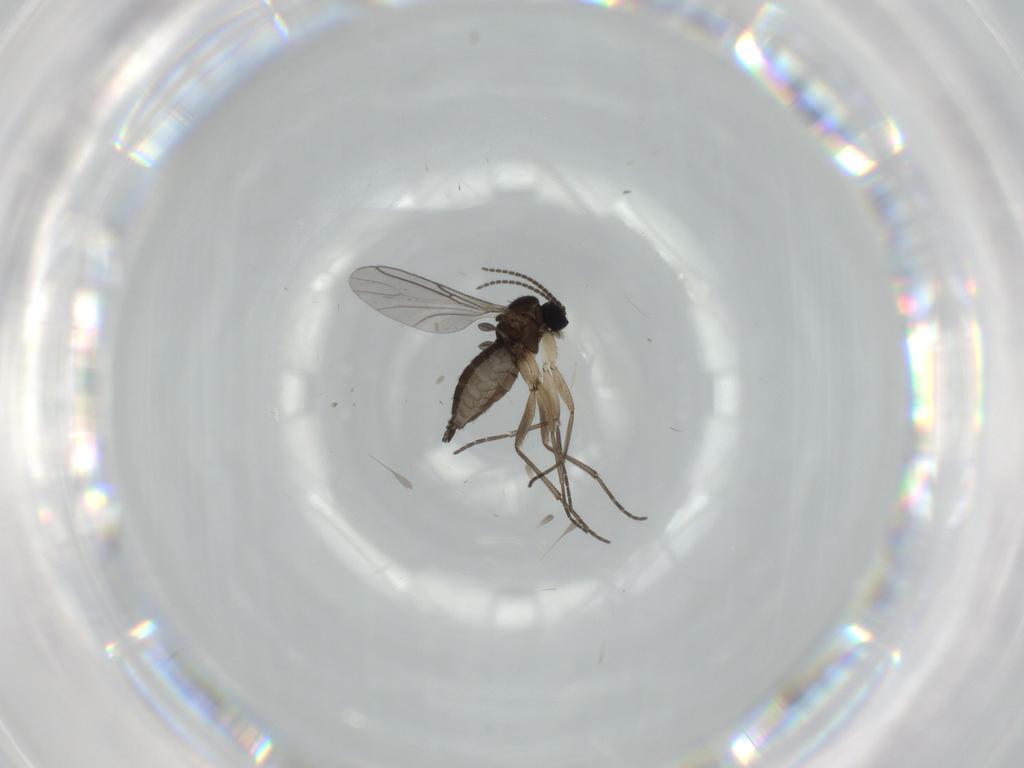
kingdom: Animalia
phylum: Arthropoda
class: Insecta
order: Diptera
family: Sciaridae
